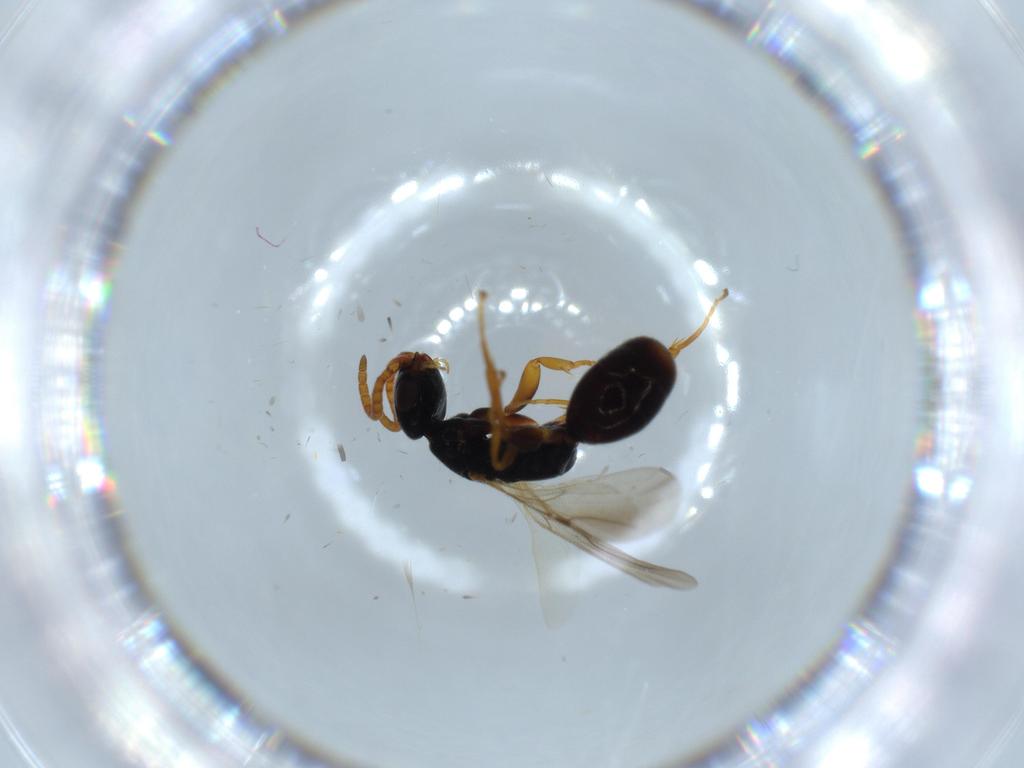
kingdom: Animalia
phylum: Arthropoda
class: Insecta
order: Hymenoptera
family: Bethylidae
